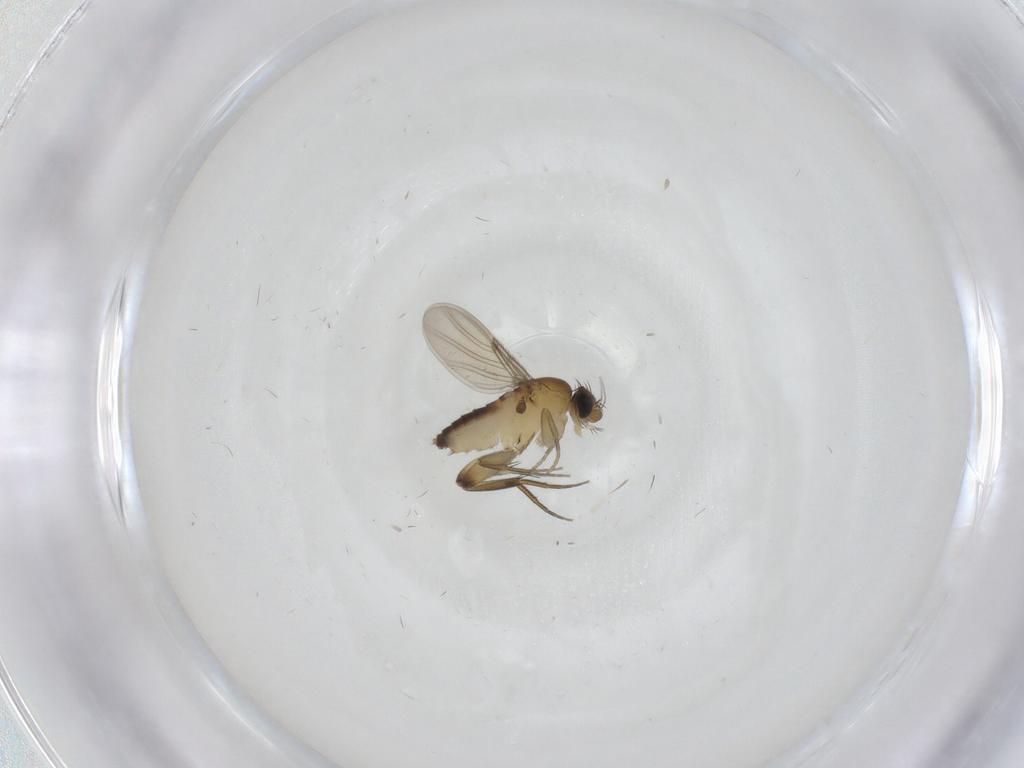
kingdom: Animalia
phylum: Arthropoda
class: Insecta
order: Diptera
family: Phoridae
